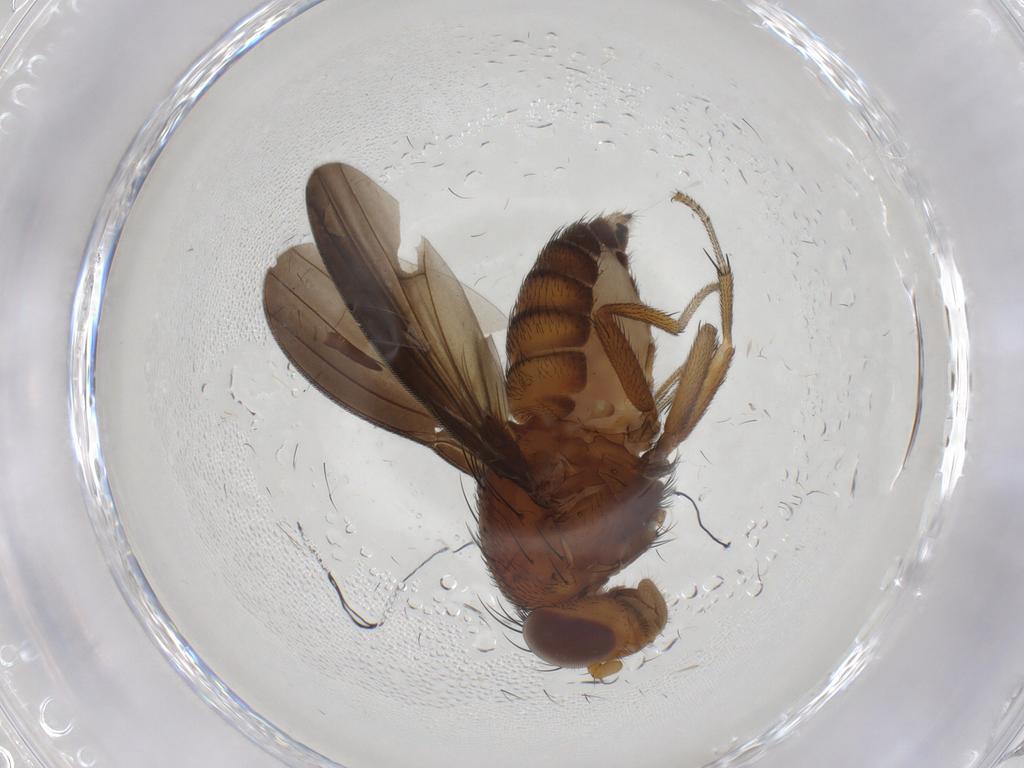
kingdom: Animalia
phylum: Arthropoda
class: Insecta
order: Diptera
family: Tabanidae
